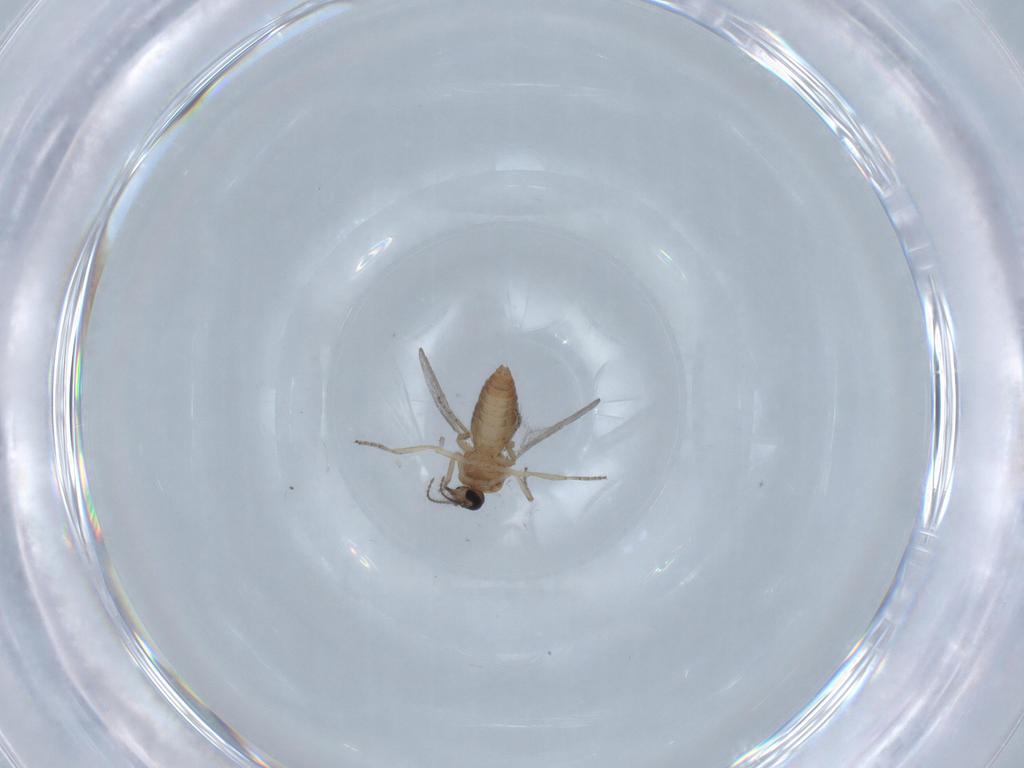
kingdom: Animalia
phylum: Arthropoda
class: Insecta
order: Diptera
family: Ceratopogonidae
